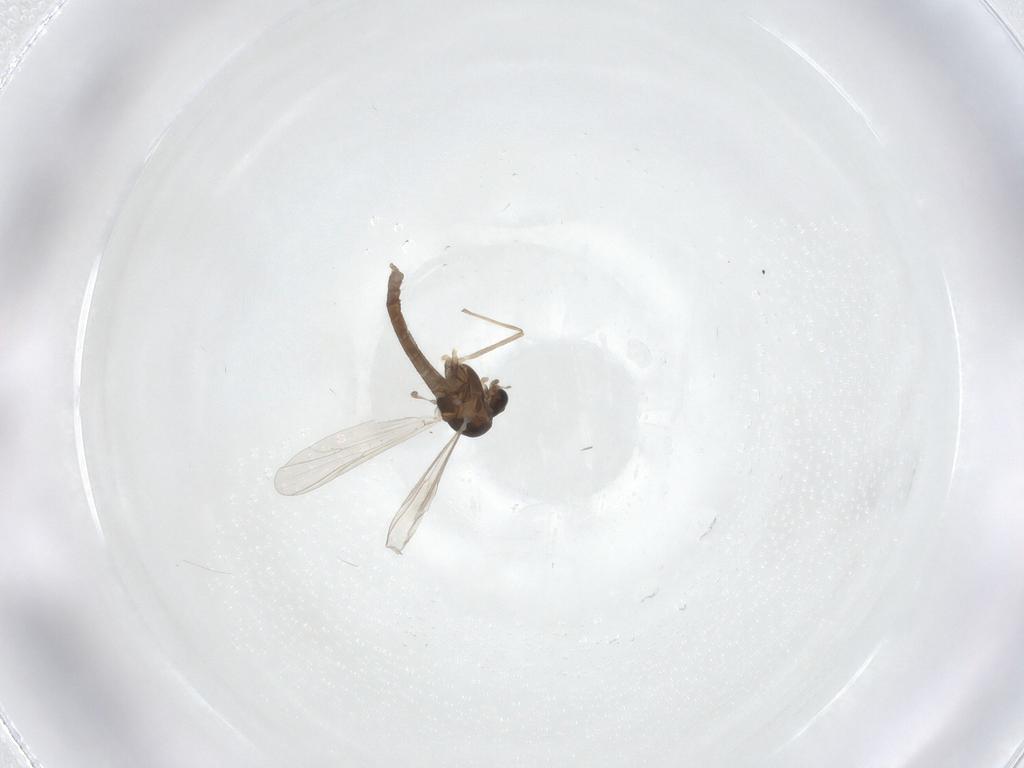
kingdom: Animalia
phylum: Arthropoda
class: Insecta
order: Diptera
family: Chironomidae
